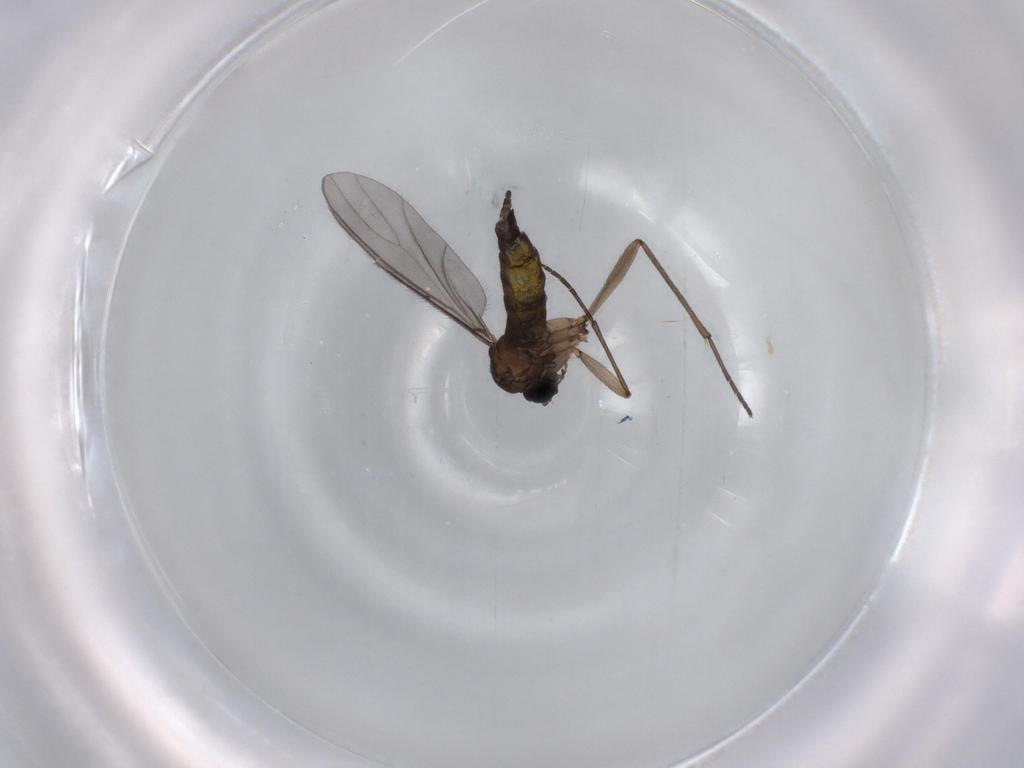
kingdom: Animalia
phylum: Arthropoda
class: Insecta
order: Diptera
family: Sciaridae
